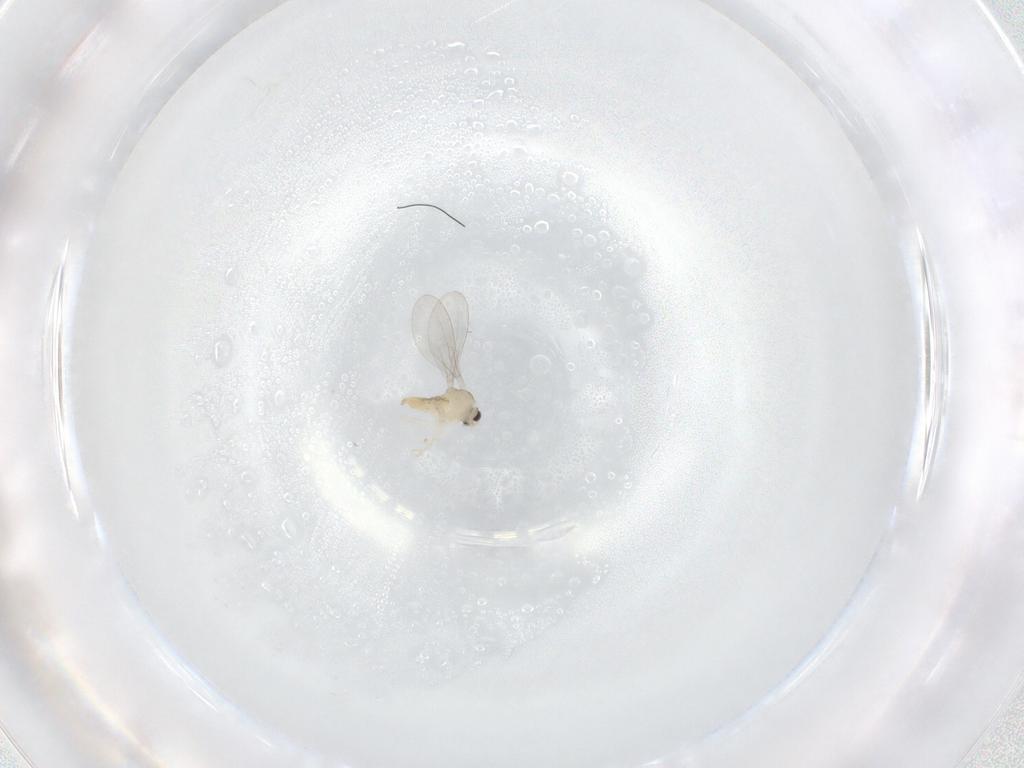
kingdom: Animalia
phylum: Arthropoda
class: Insecta
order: Diptera
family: Cecidomyiidae
